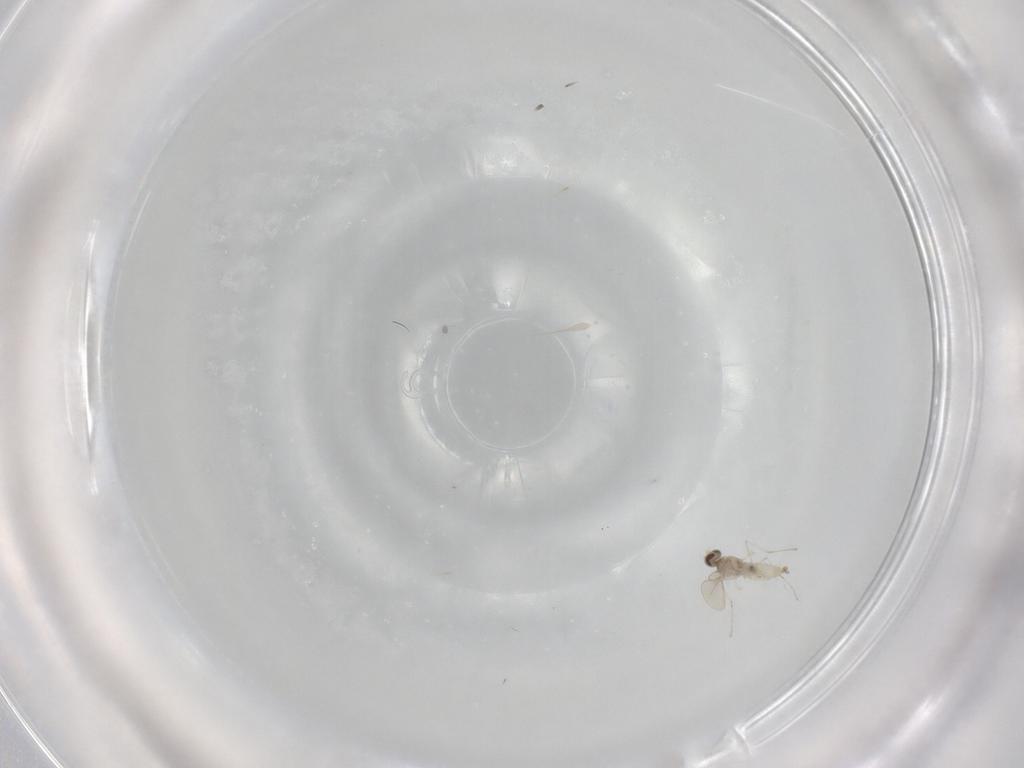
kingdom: Animalia
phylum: Arthropoda
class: Insecta
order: Diptera
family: Cecidomyiidae
